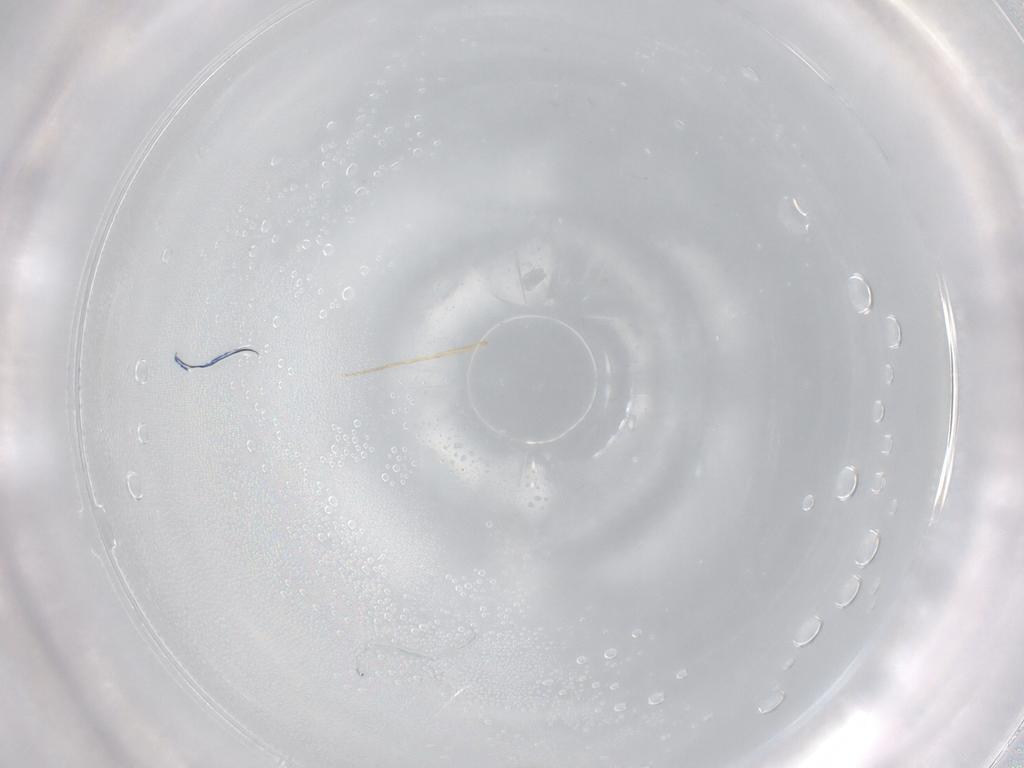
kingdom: Animalia
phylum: Arthropoda
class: Insecta
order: Diptera
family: Psychodidae
